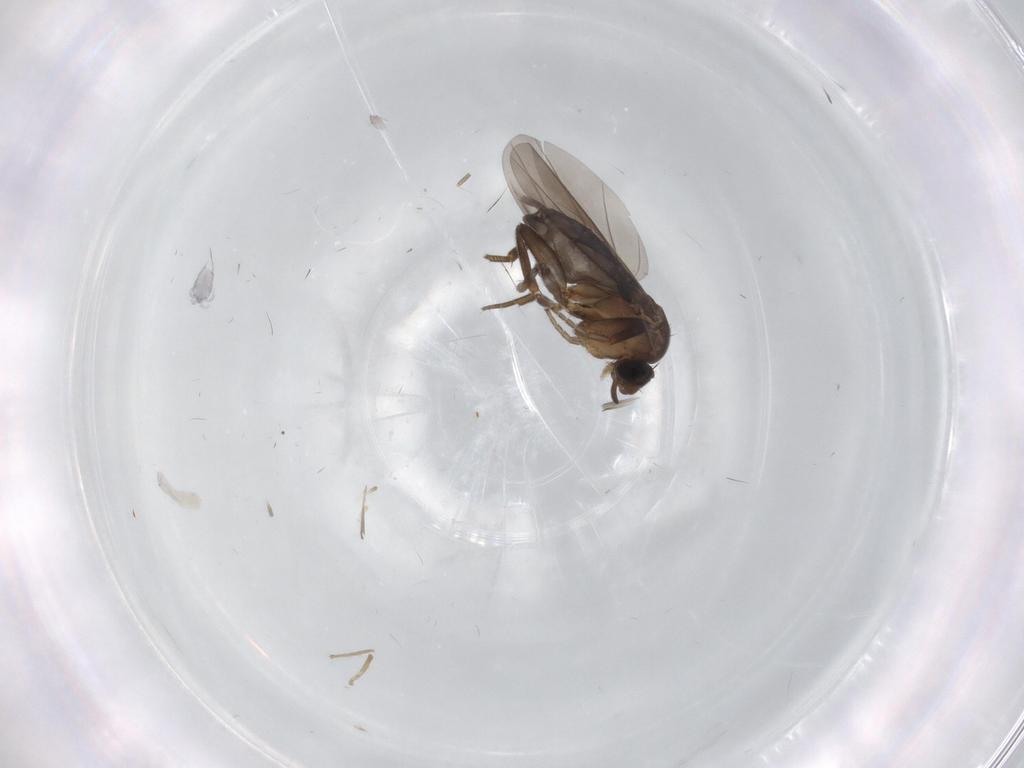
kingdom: Animalia
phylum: Arthropoda
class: Insecta
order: Diptera
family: Phoridae
